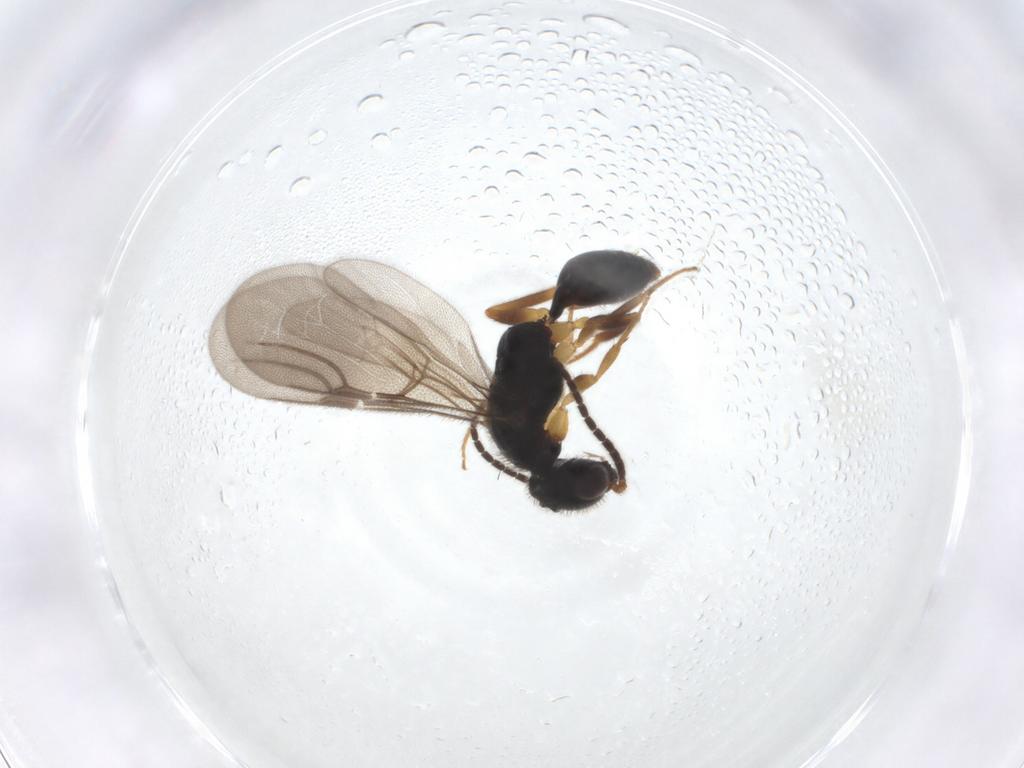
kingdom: Animalia
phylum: Arthropoda
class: Insecta
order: Hymenoptera
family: Bethylidae
